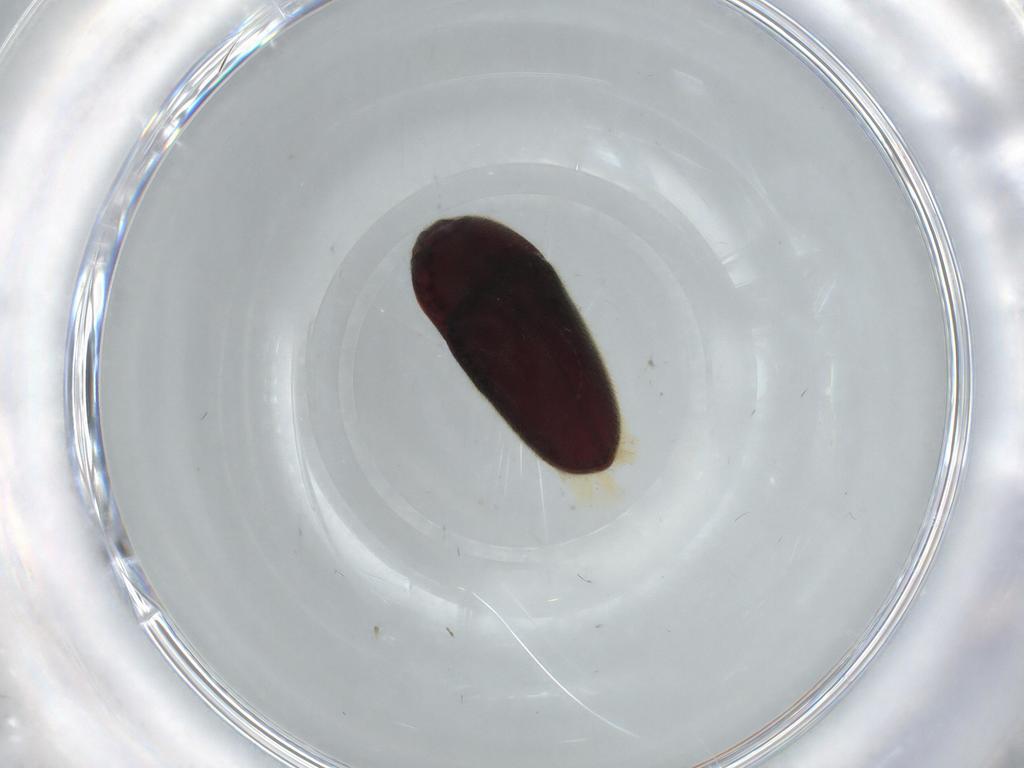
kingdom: Animalia
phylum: Arthropoda
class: Insecta
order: Coleoptera
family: Throscidae
